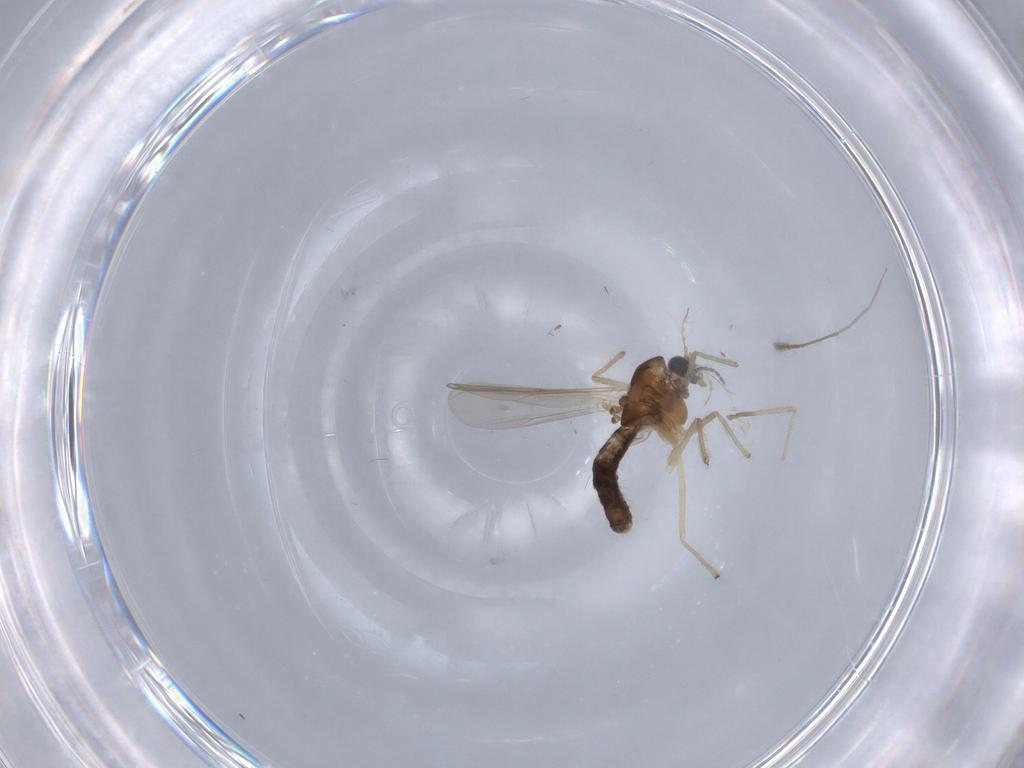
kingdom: Animalia
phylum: Arthropoda
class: Insecta
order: Diptera
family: Chironomidae
